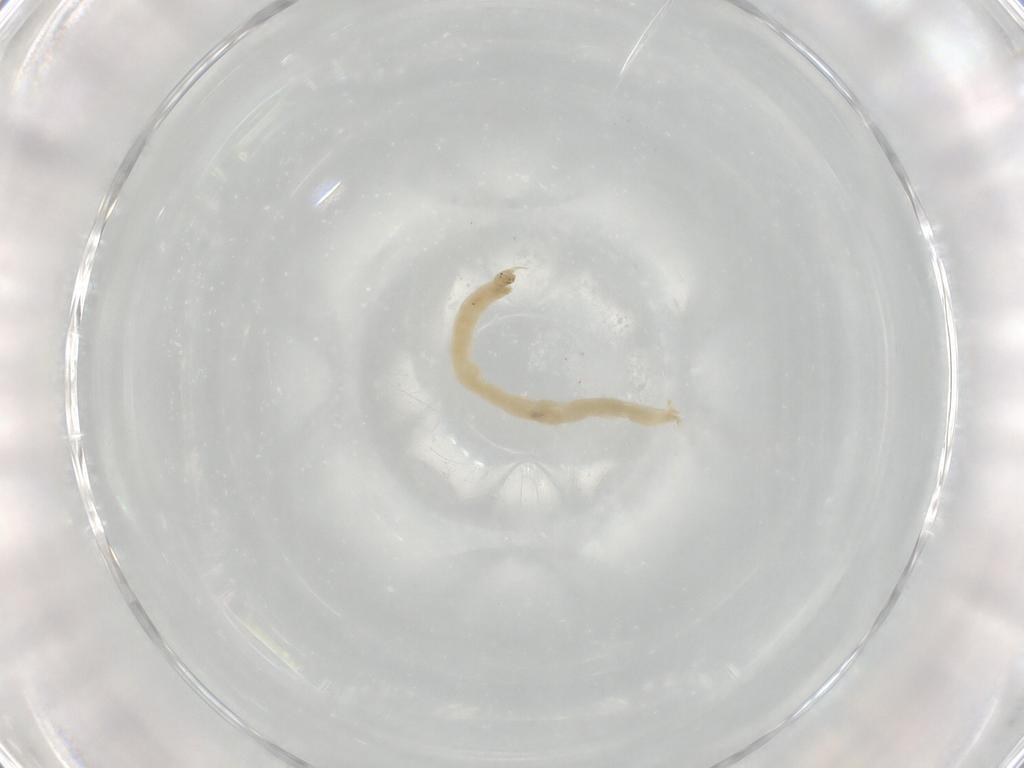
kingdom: Animalia
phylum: Arthropoda
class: Insecta
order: Diptera
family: Chironomidae
